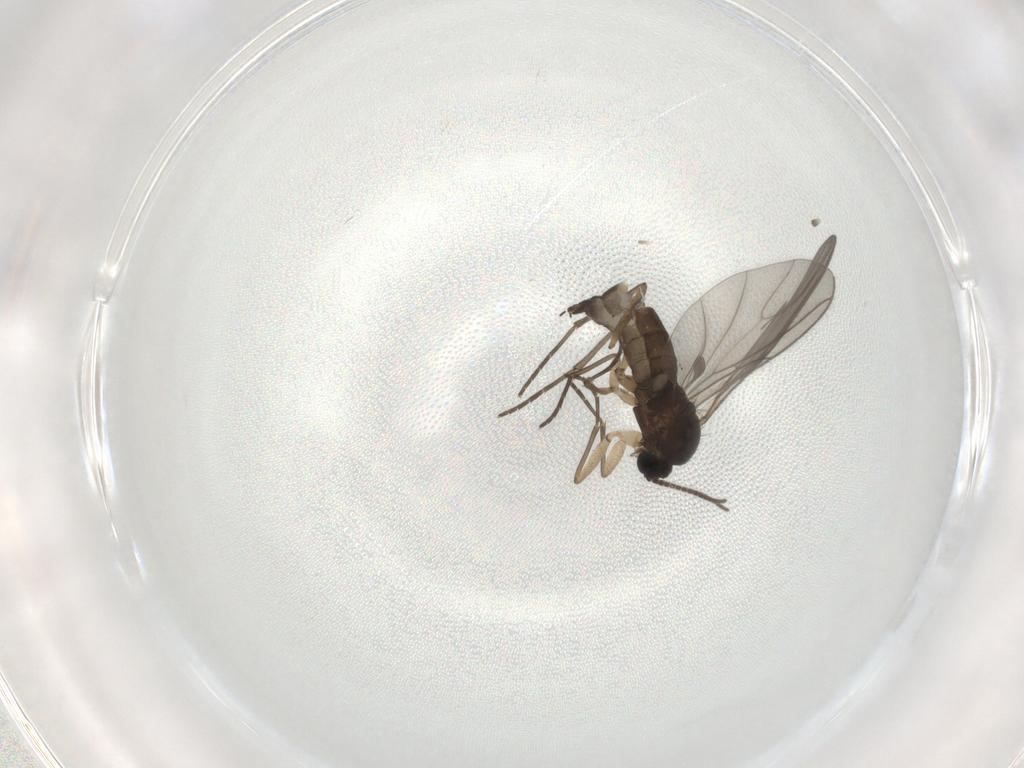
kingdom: Animalia
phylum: Arthropoda
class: Insecta
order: Diptera
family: Sciaridae
